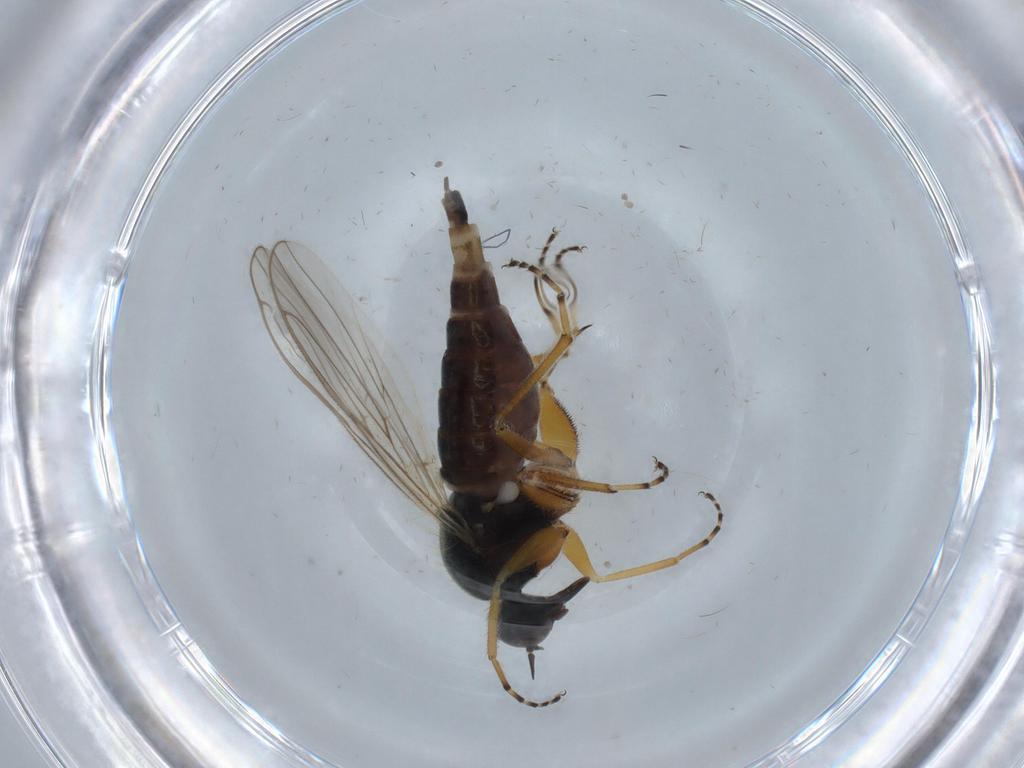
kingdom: Animalia
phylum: Arthropoda
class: Insecta
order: Diptera
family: Hybotidae
